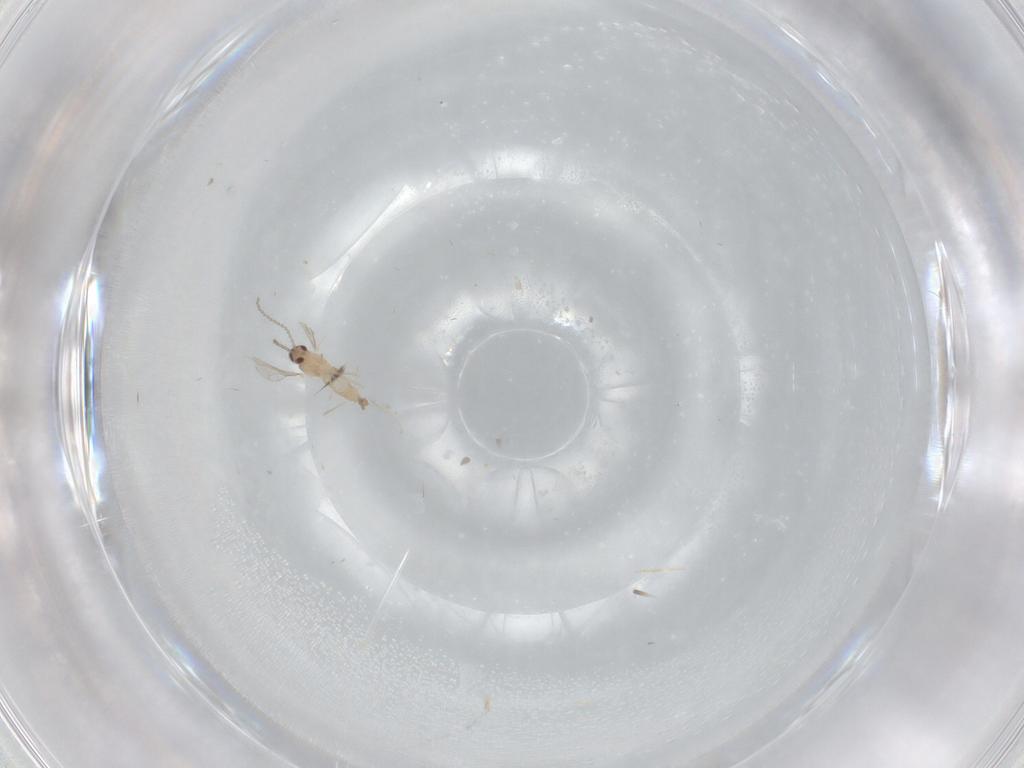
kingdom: Animalia
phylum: Arthropoda
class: Insecta
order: Diptera
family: Cecidomyiidae
